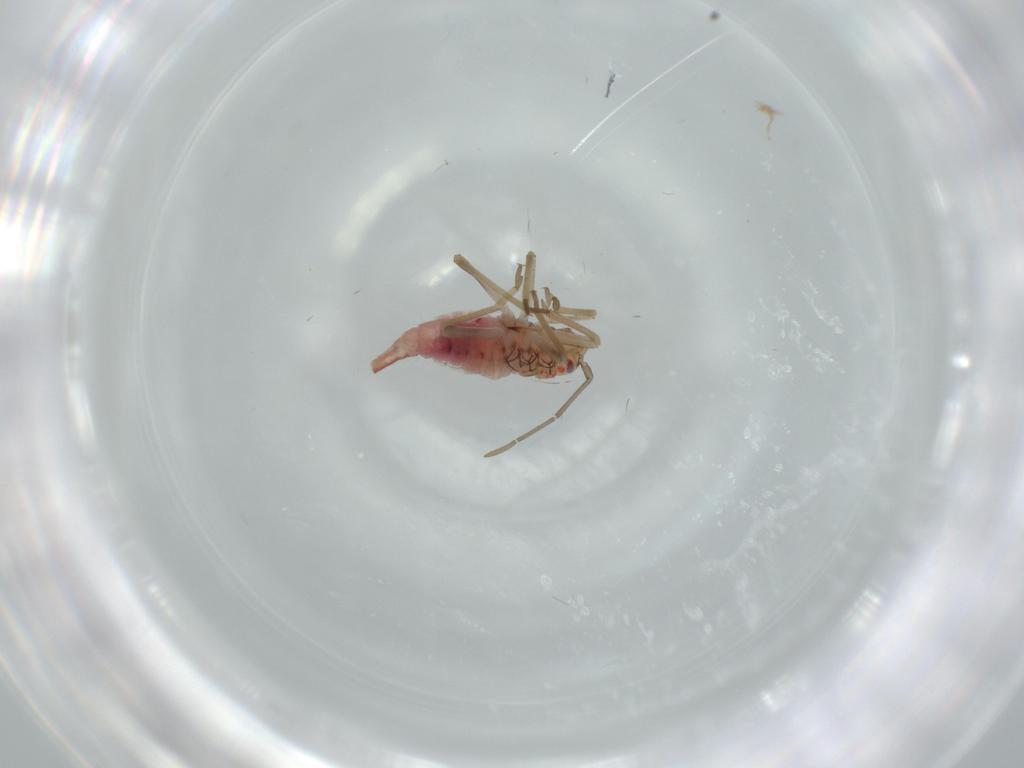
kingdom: Animalia
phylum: Arthropoda
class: Insecta
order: Hemiptera
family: Miridae
